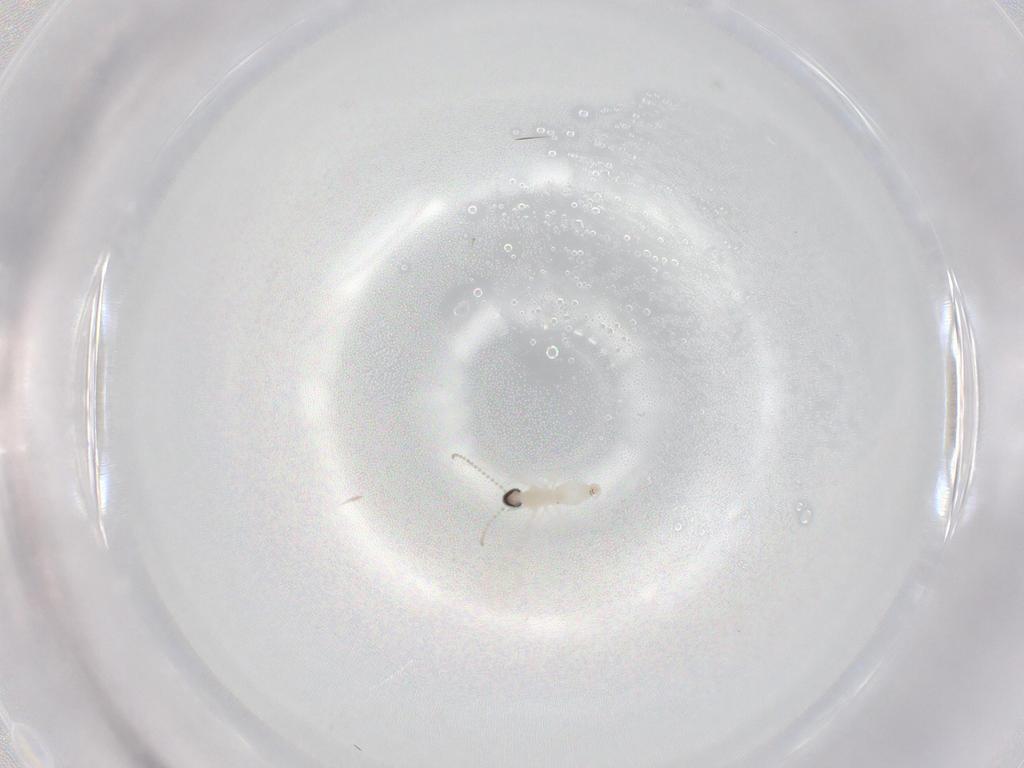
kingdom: Animalia
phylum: Arthropoda
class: Insecta
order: Diptera
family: Cecidomyiidae
